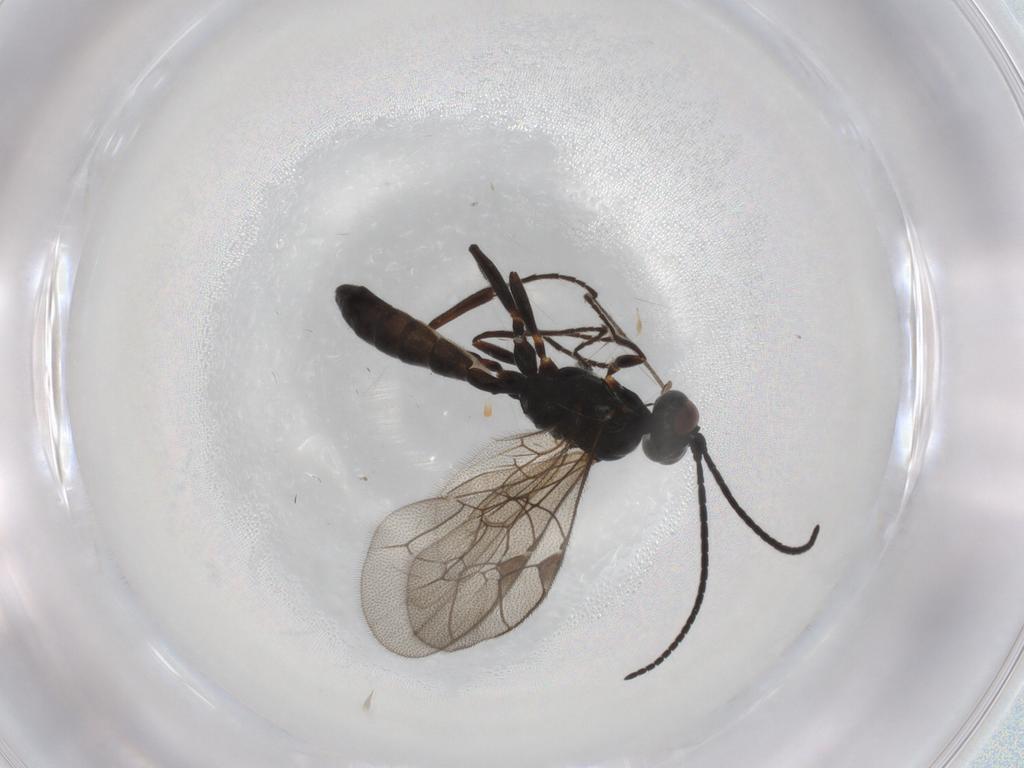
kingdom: Animalia
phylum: Arthropoda
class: Insecta
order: Hymenoptera
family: Ichneumonidae
